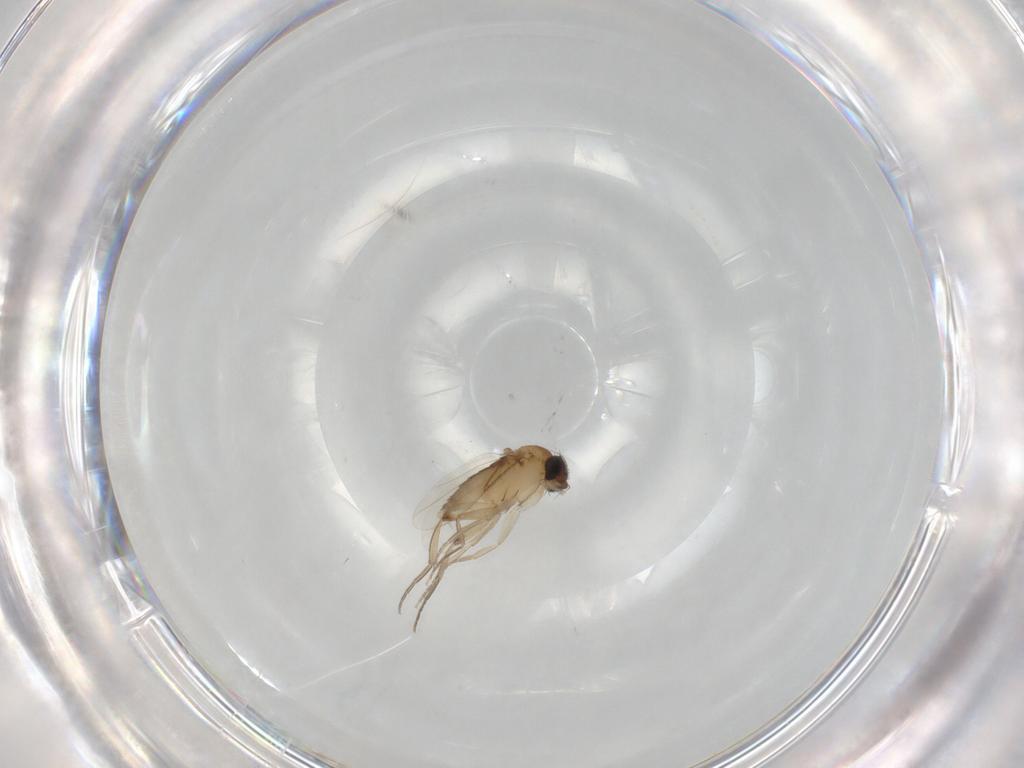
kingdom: Animalia
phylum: Arthropoda
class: Insecta
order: Diptera
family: Phoridae
